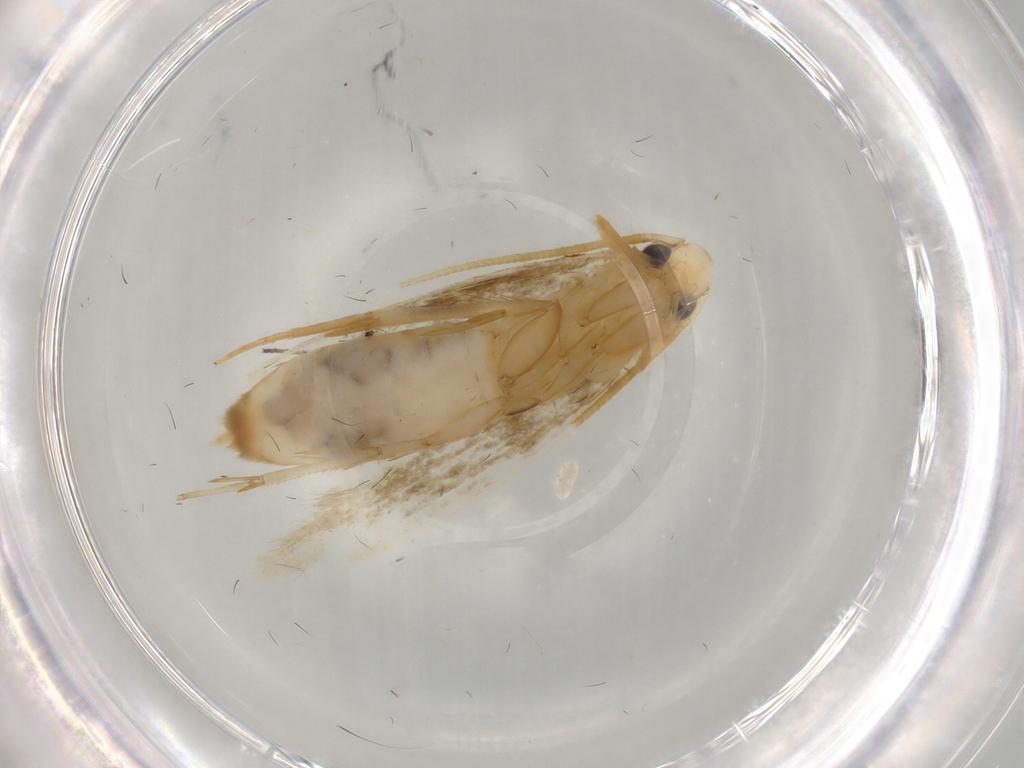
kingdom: Animalia
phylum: Arthropoda
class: Insecta
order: Lepidoptera
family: Tineidae
